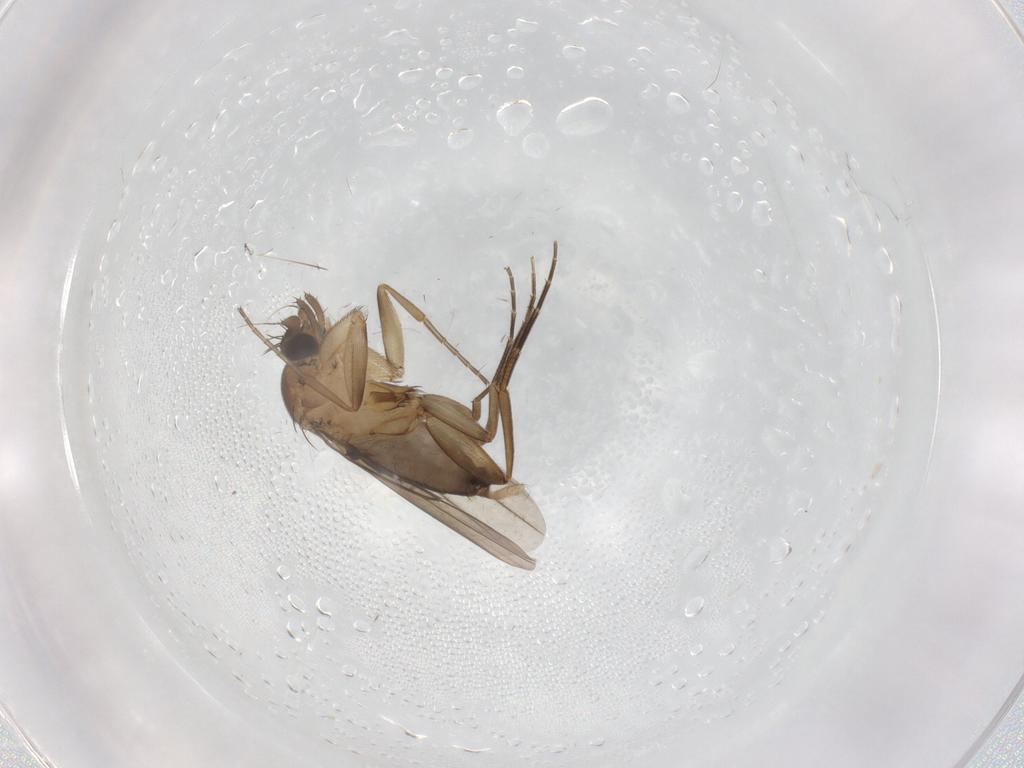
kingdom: Animalia
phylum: Arthropoda
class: Insecta
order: Diptera
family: Phoridae
